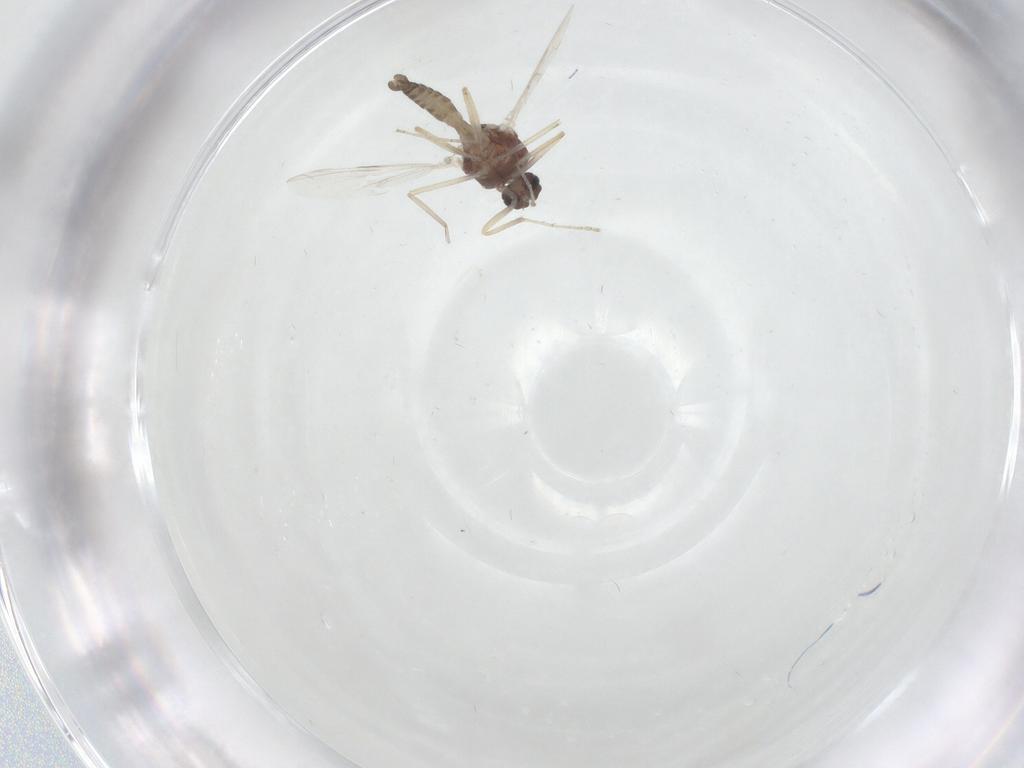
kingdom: Animalia
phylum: Arthropoda
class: Insecta
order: Diptera
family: Ceratopogonidae
